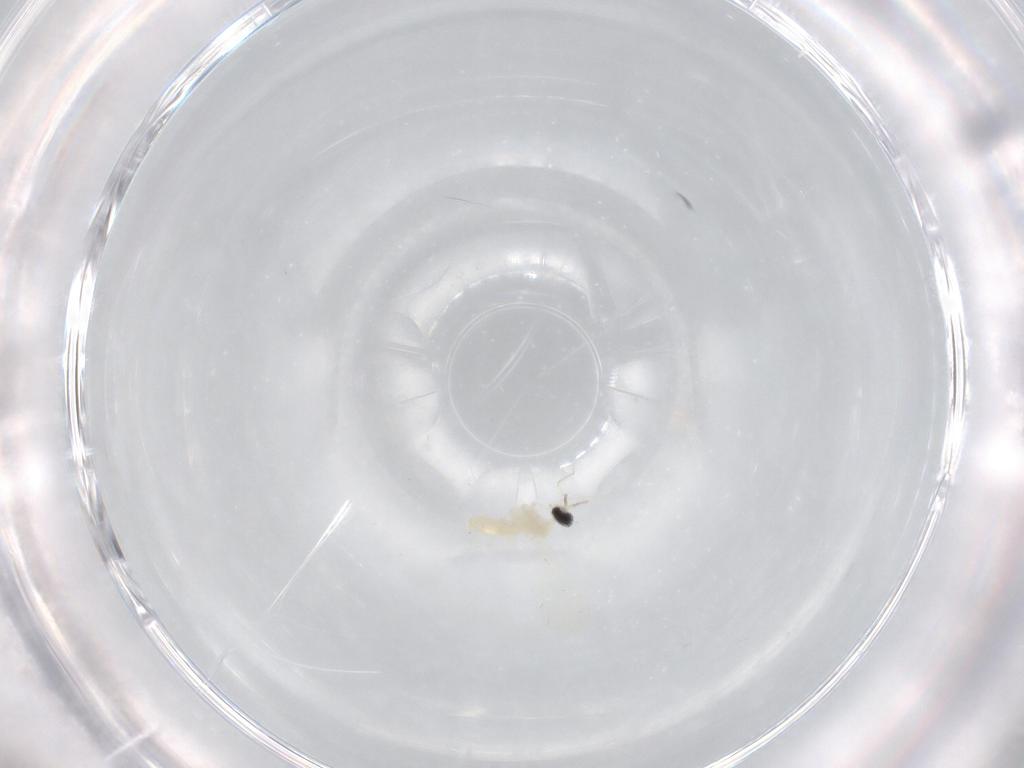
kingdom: Animalia
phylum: Arthropoda
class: Insecta
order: Diptera
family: Cecidomyiidae
